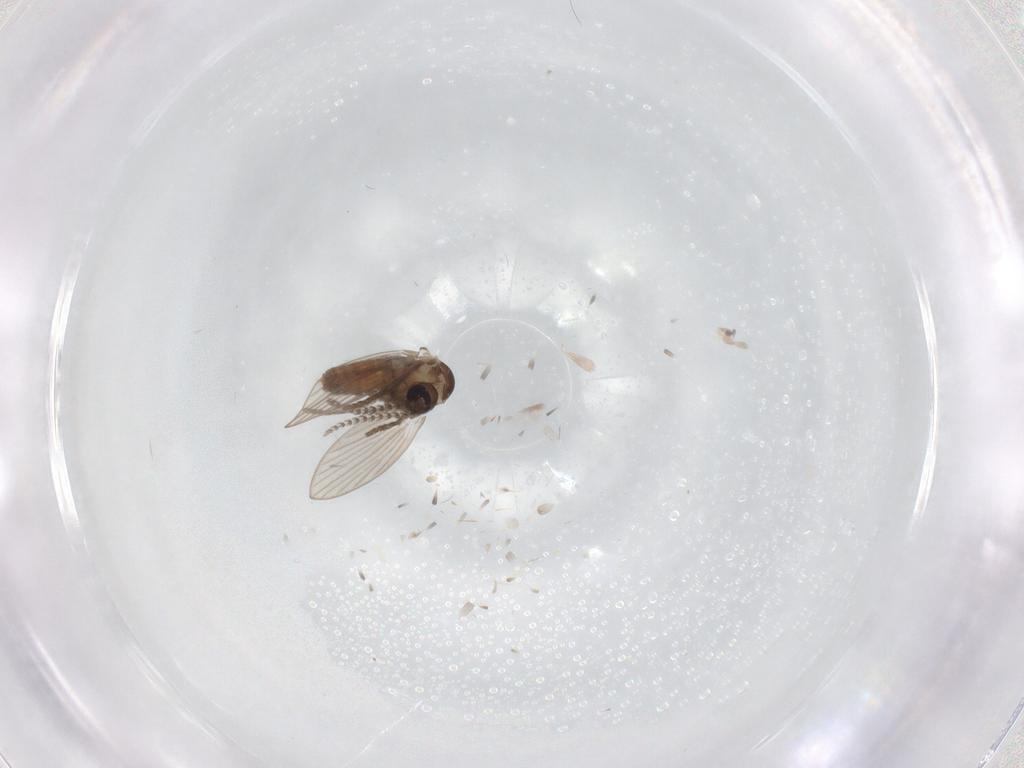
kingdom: Animalia
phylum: Arthropoda
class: Insecta
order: Diptera
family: Psychodidae
